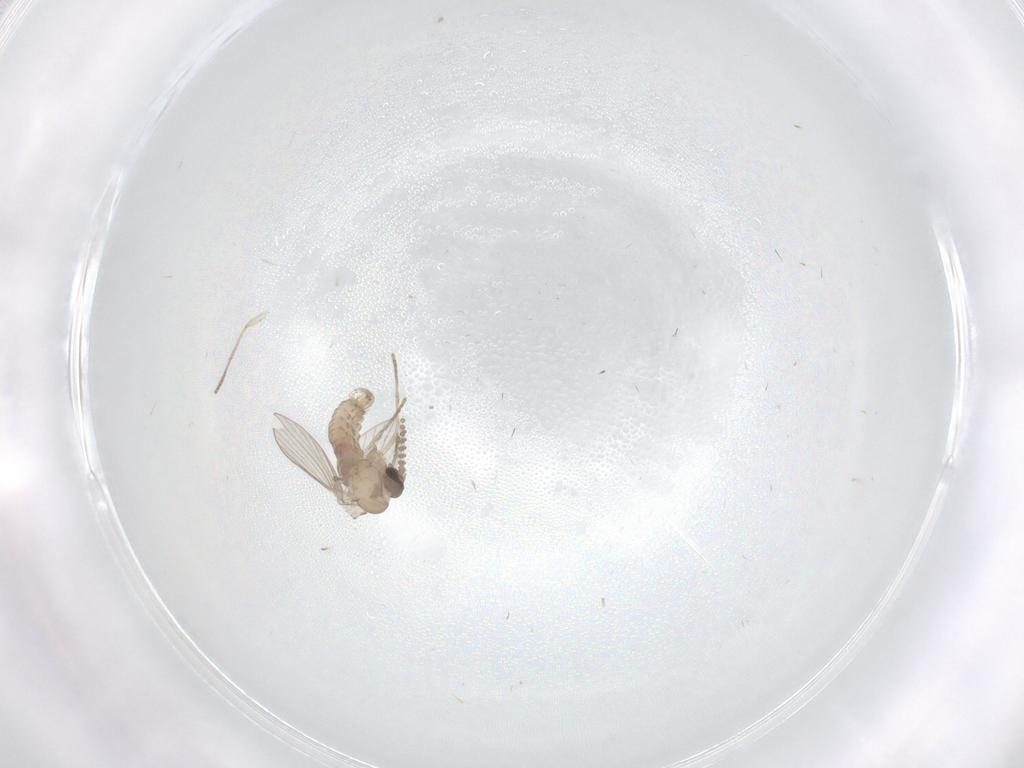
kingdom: Animalia
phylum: Arthropoda
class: Insecta
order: Diptera
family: Psychodidae
